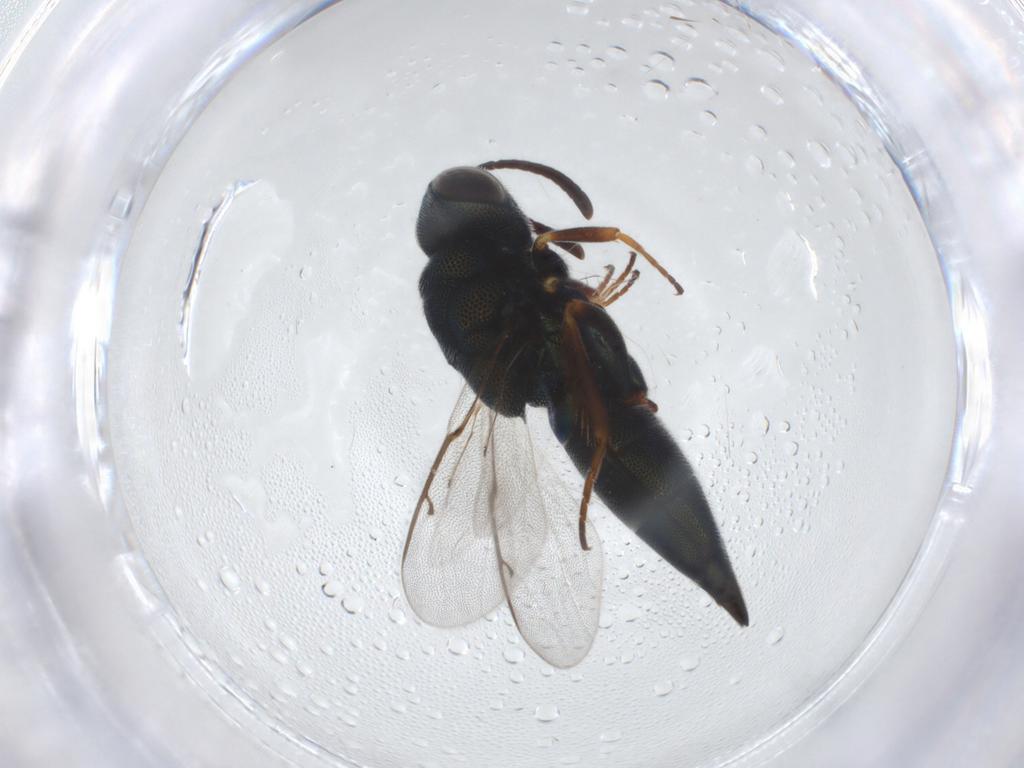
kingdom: Animalia
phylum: Arthropoda
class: Insecta
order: Hymenoptera
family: Lyciscidae
